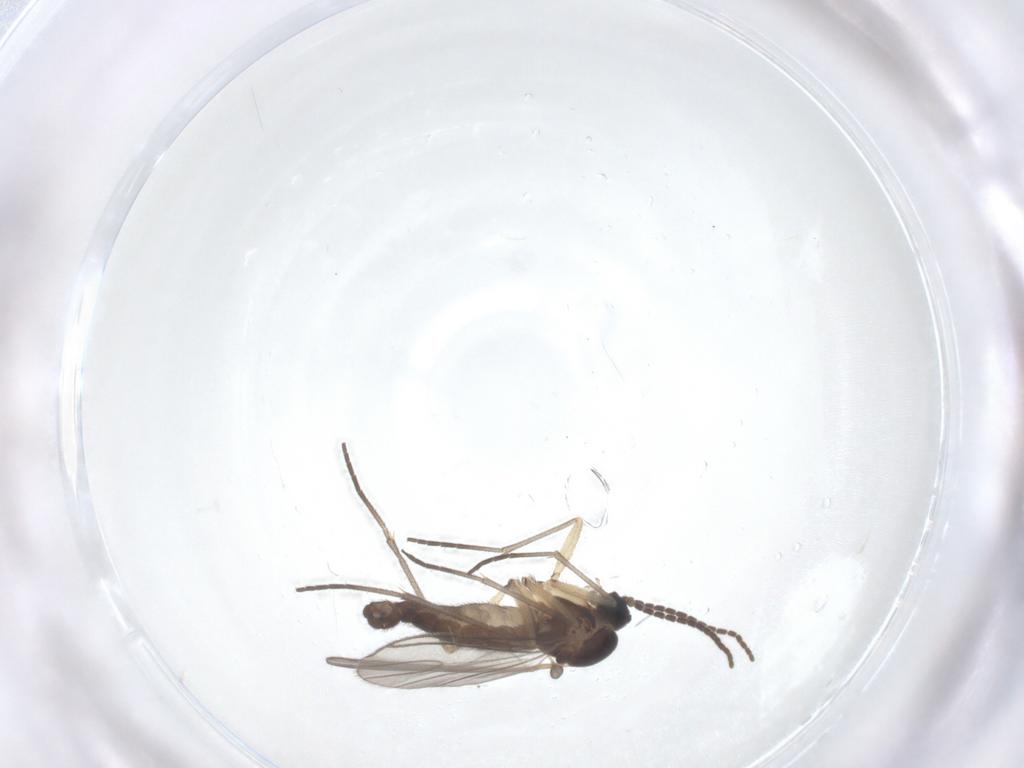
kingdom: Animalia
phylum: Arthropoda
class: Insecta
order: Diptera
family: Sciaridae
